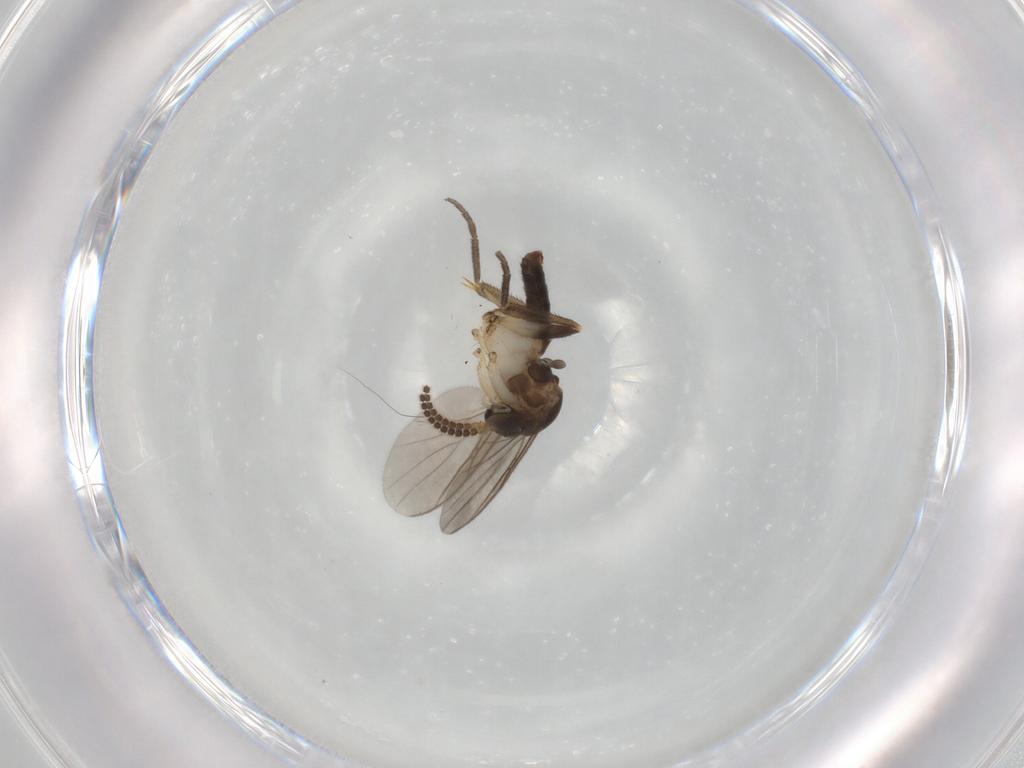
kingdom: Animalia
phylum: Arthropoda
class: Insecta
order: Diptera
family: Mycetophilidae
